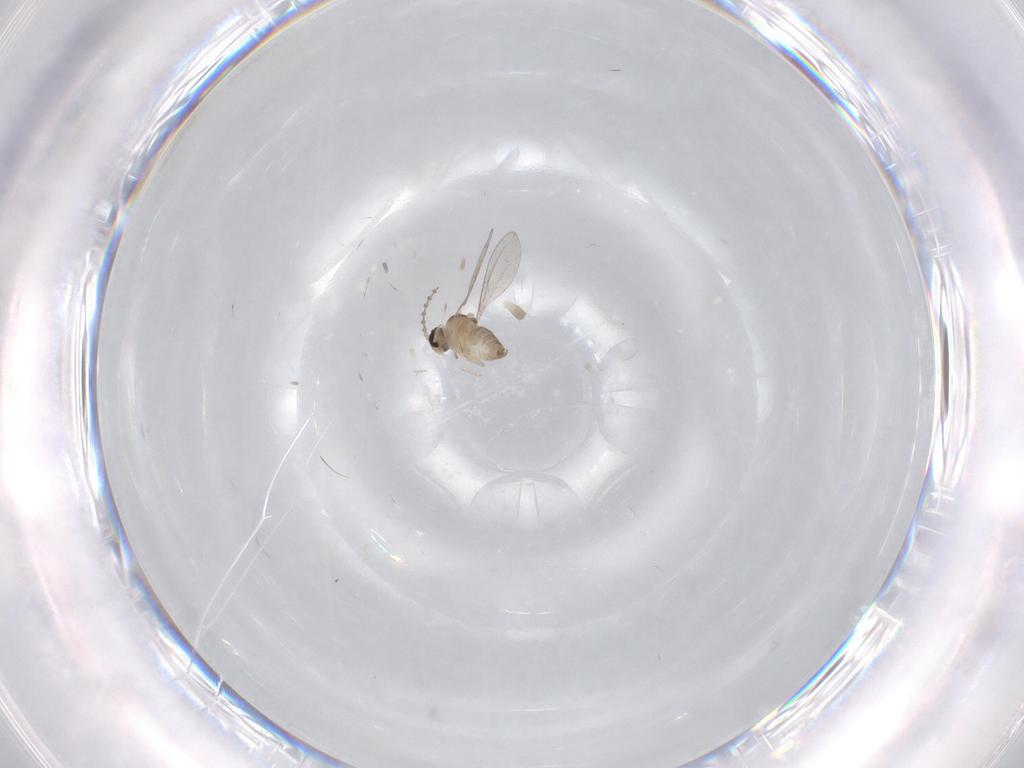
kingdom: Animalia
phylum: Arthropoda
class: Insecta
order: Diptera
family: Cecidomyiidae
